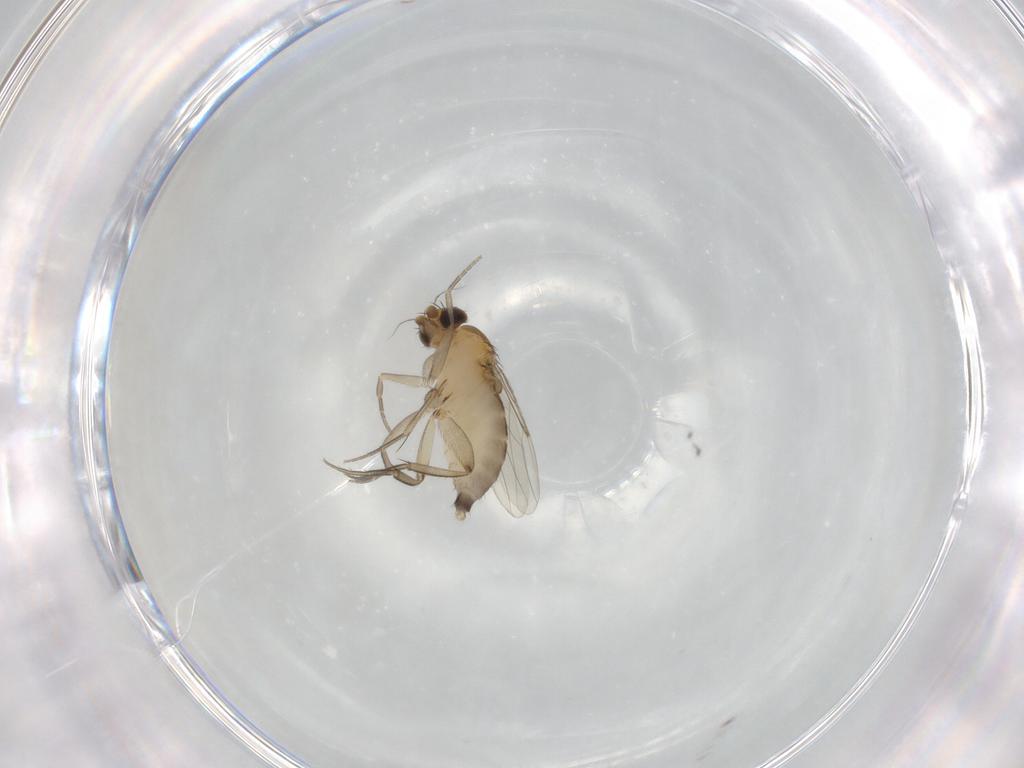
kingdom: Animalia
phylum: Arthropoda
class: Insecta
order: Diptera
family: Phoridae
